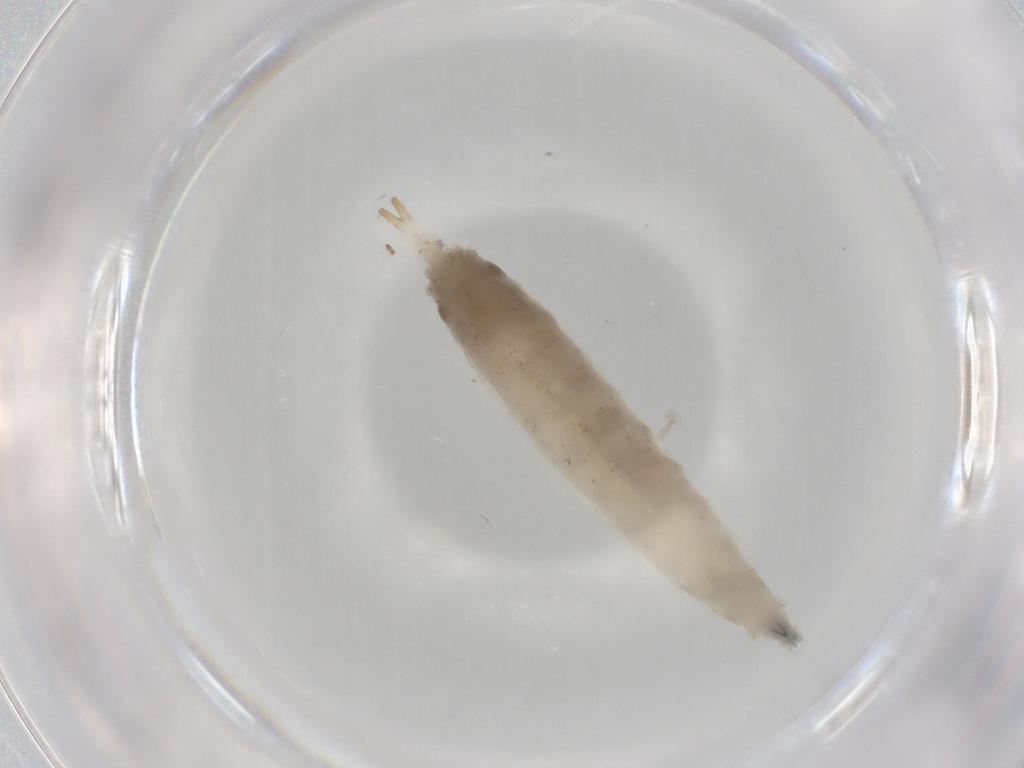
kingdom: Animalia
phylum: Arthropoda
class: Insecta
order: Diptera
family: Drosophilidae
